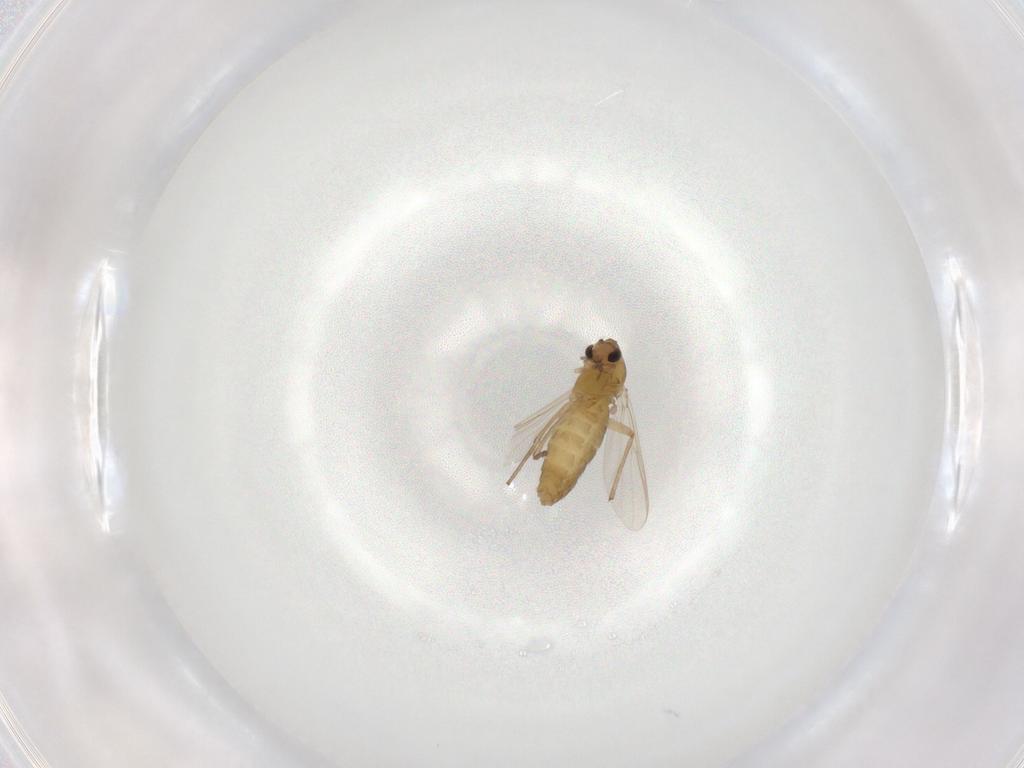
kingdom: Animalia
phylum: Arthropoda
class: Insecta
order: Diptera
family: Chironomidae
